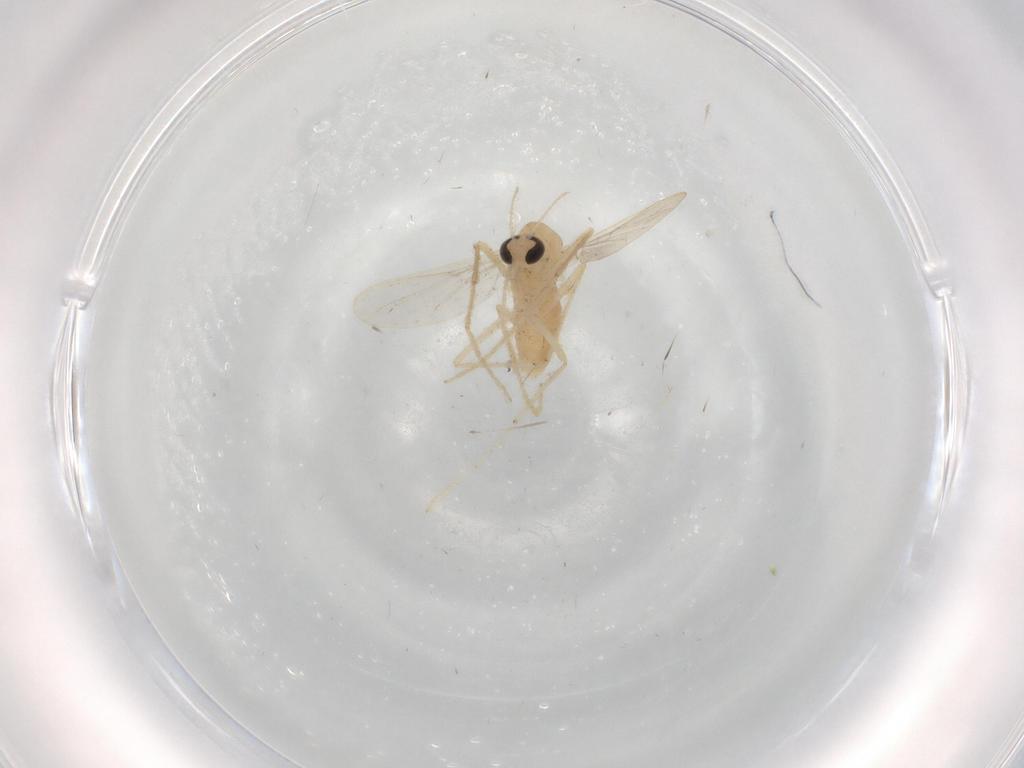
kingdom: Animalia
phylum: Arthropoda
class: Insecta
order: Diptera
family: Chironomidae
